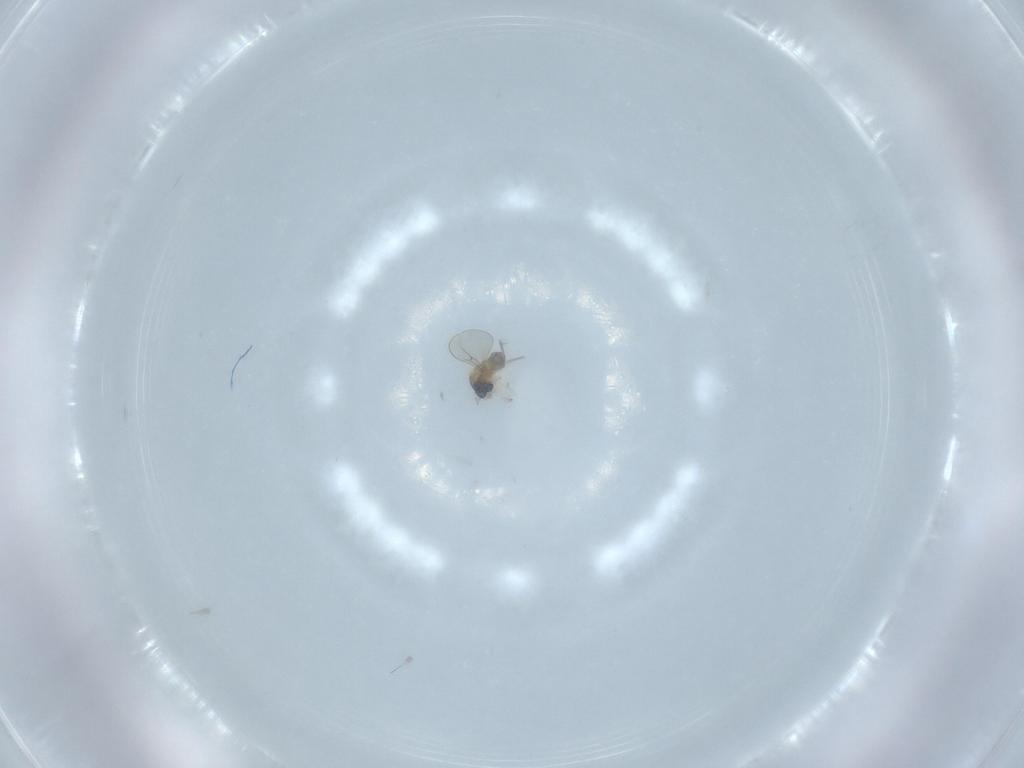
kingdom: Animalia
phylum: Arthropoda
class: Insecta
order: Diptera
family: Cecidomyiidae
